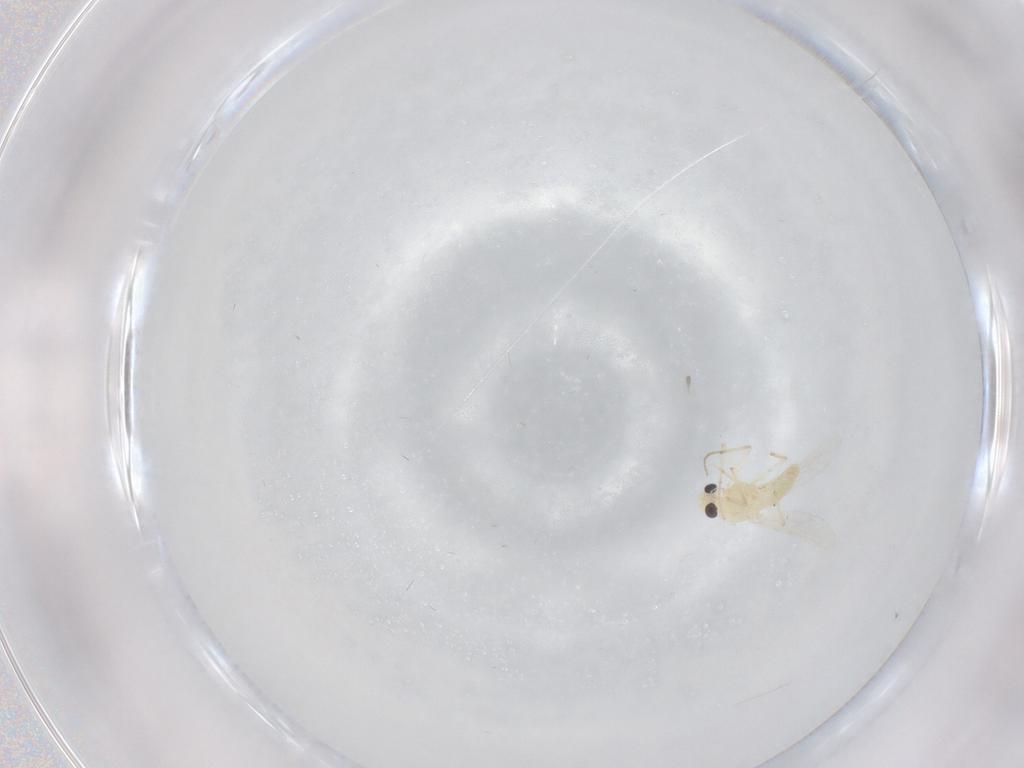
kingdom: Animalia
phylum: Arthropoda
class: Insecta
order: Diptera
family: Chironomidae
